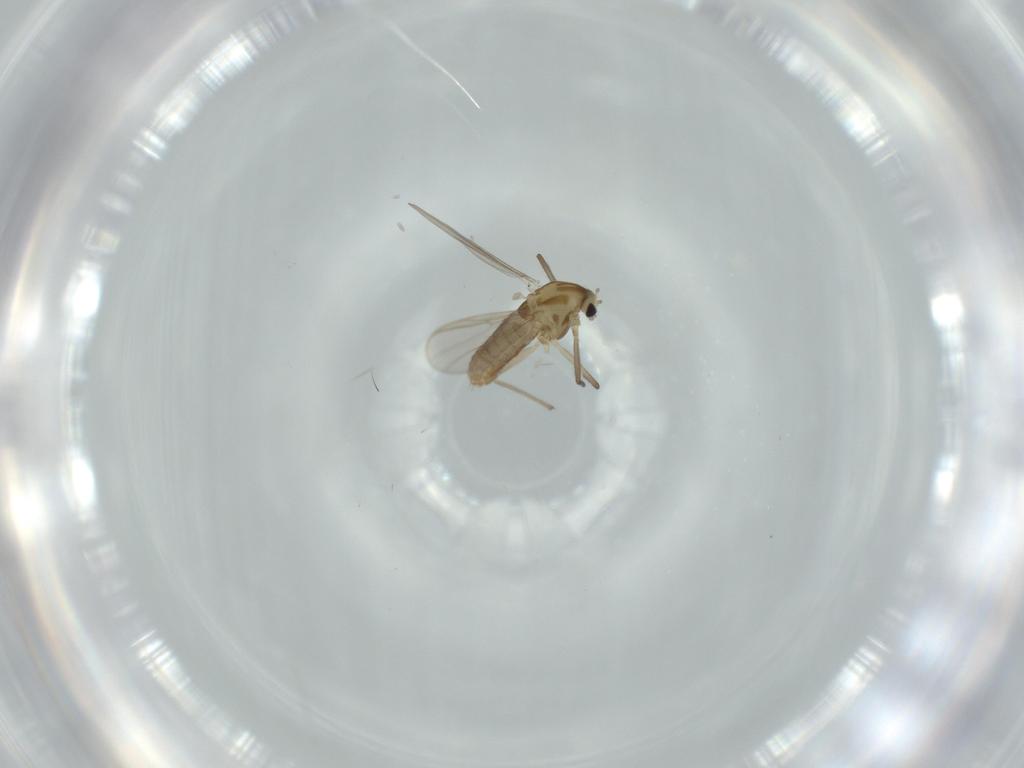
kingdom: Animalia
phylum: Arthropoda
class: Insecta
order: Diptera
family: Chironomidae
